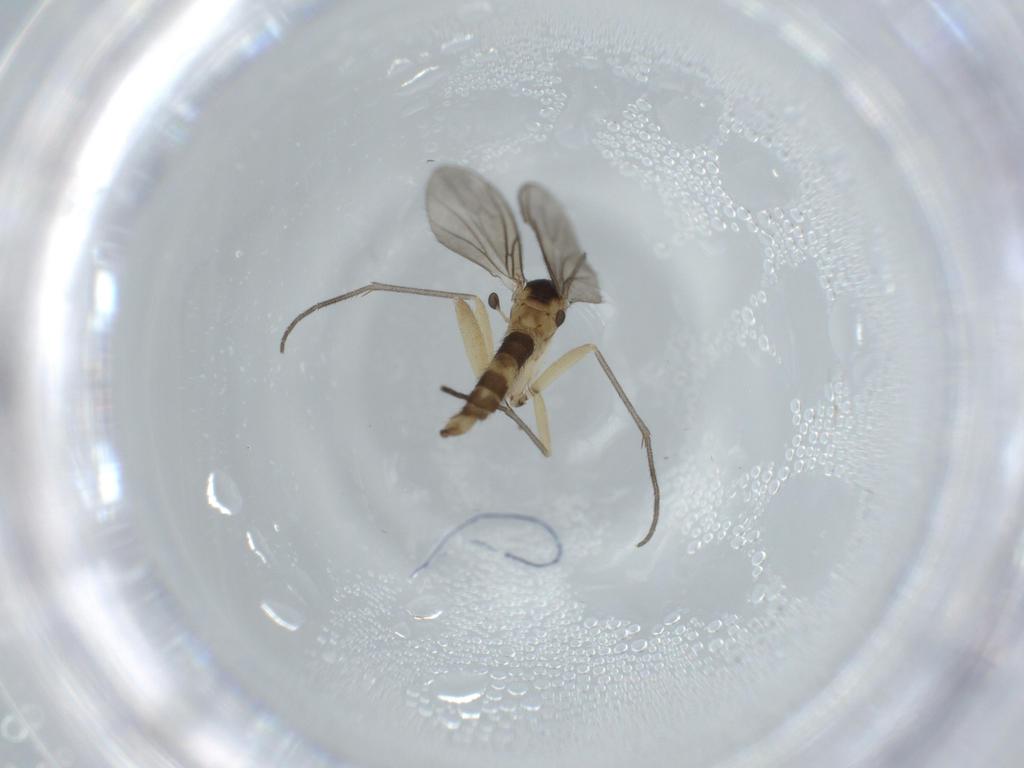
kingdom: Animalia
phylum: Arthropoda
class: Insecta
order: Diptera
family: Sciaridae
